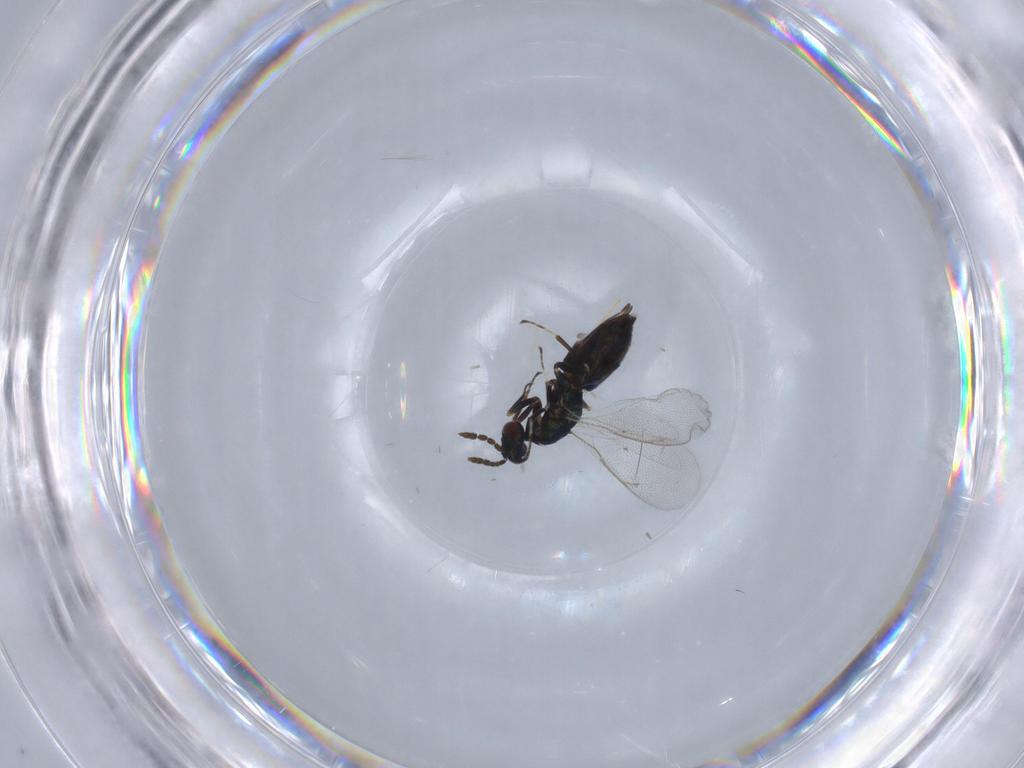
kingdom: Animalia
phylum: Arthropoda
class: Insecta
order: Hymenoptera
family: Eulophidae
